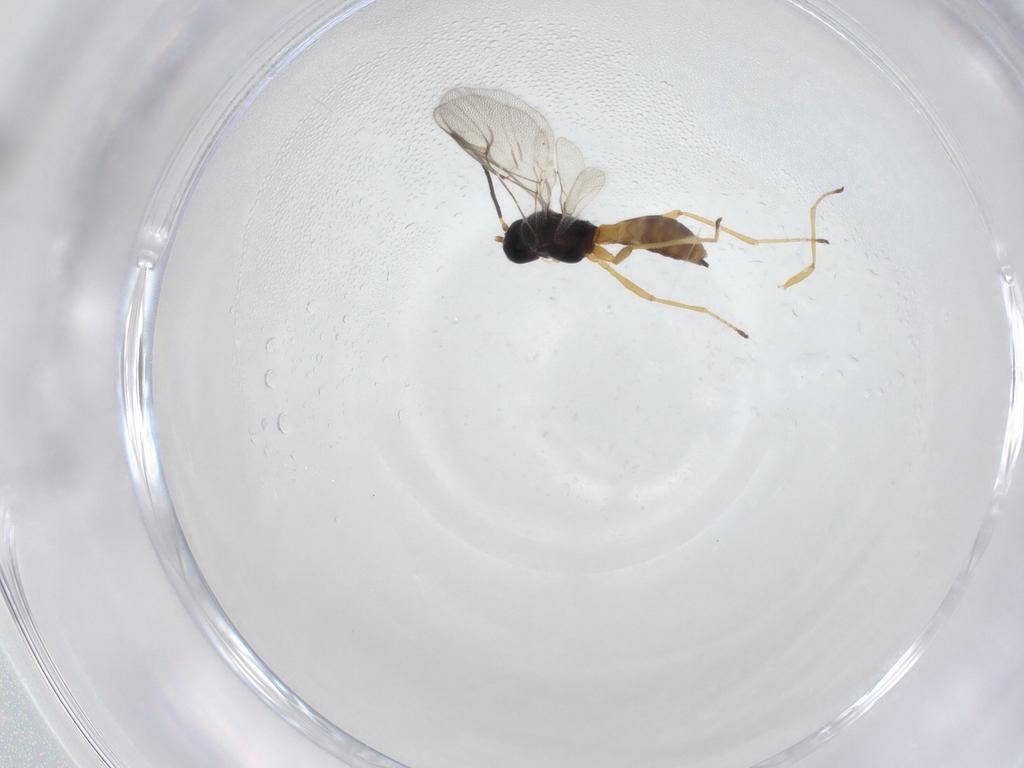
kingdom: Animalia
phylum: Arthropoda
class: Insecta
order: Hymenoptera
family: Braconidae
